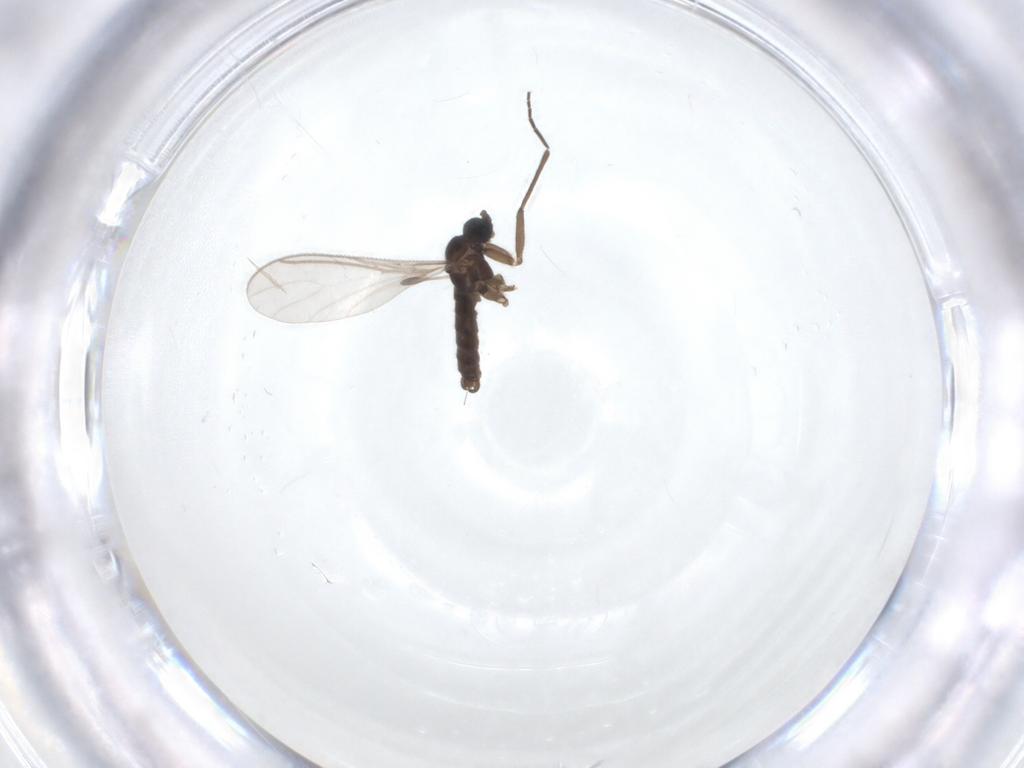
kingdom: Animalia
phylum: Arthropoda
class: Insecta
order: Diptera
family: Sciaridae
